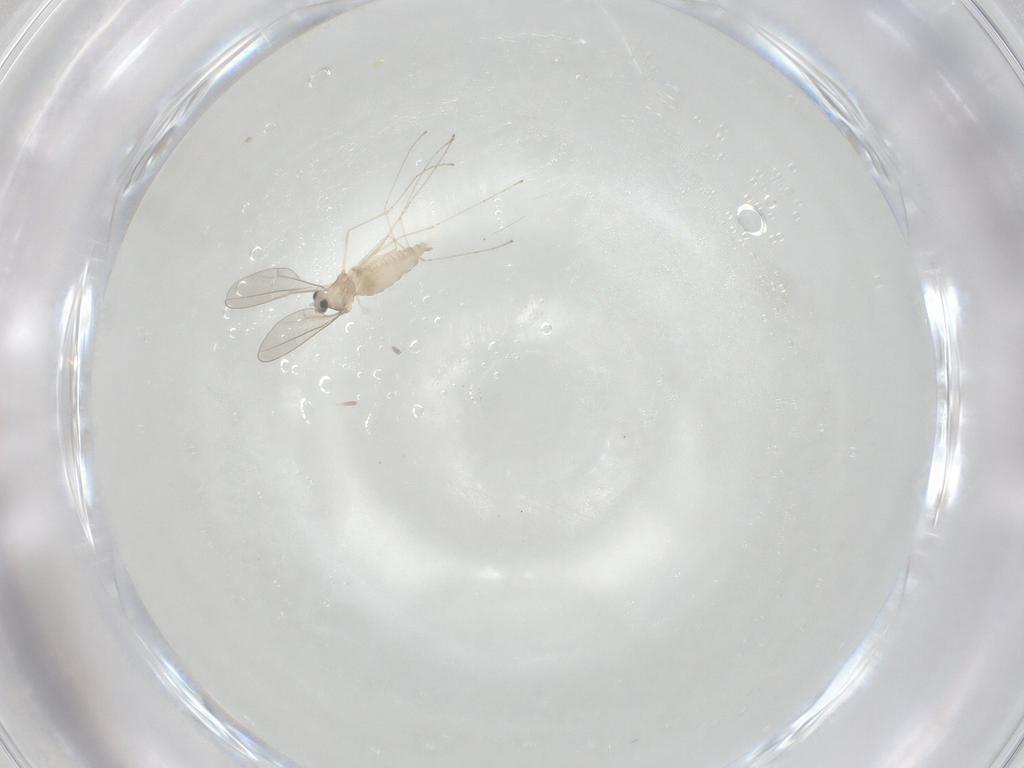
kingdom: Animalia
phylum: Arthropoda
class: Insecta
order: Diptera
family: Cecidomyiidae
